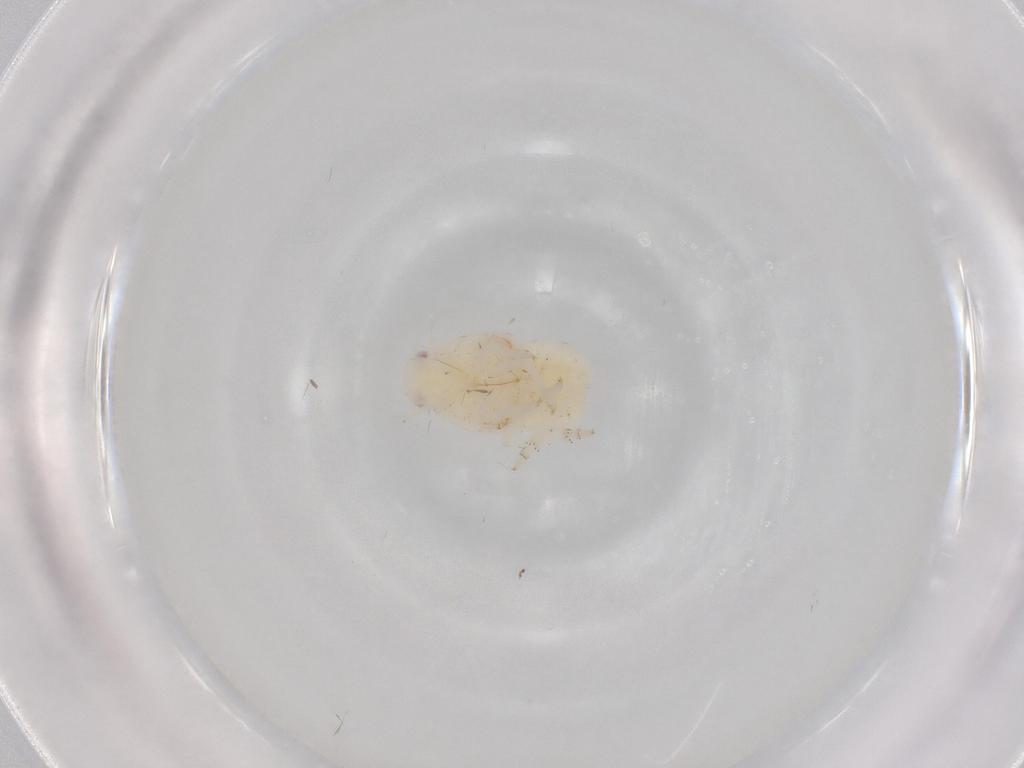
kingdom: Animalia
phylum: Arthropoda
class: Insecta
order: Hemiptera
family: Flatidae
